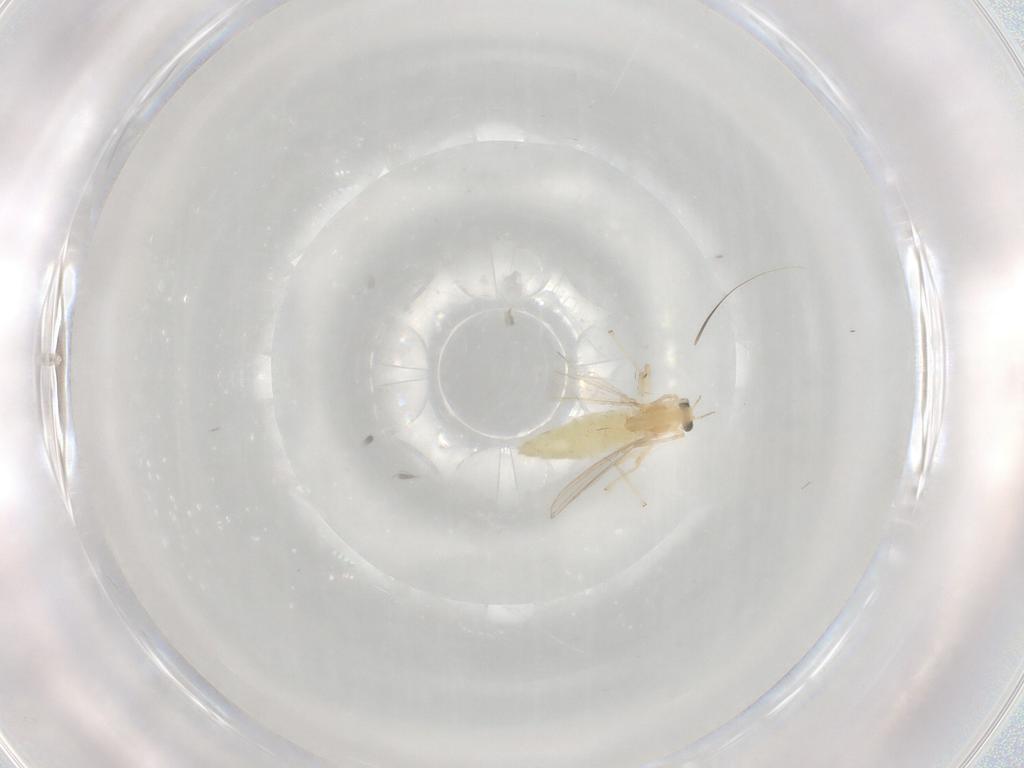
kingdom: Animalia
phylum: Arthropoda
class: Insecta
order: Diptera
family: Chironomidae
